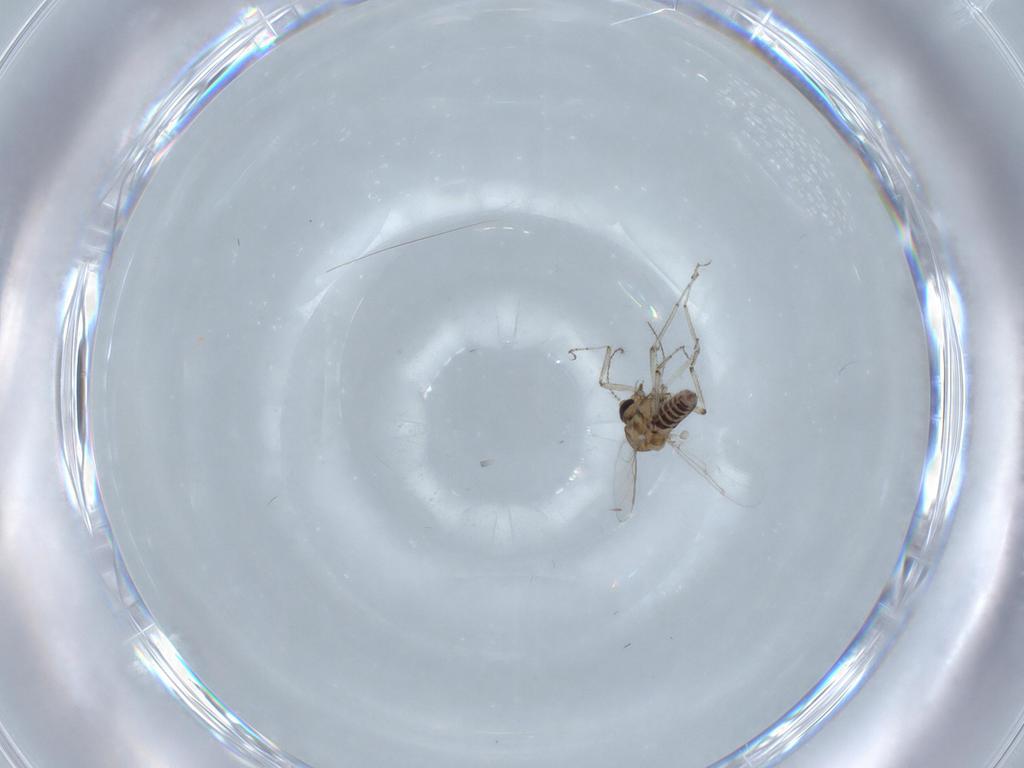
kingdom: Animalia
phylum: Arthropoda
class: Insecta
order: Diptera
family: Ceratopogonidae
